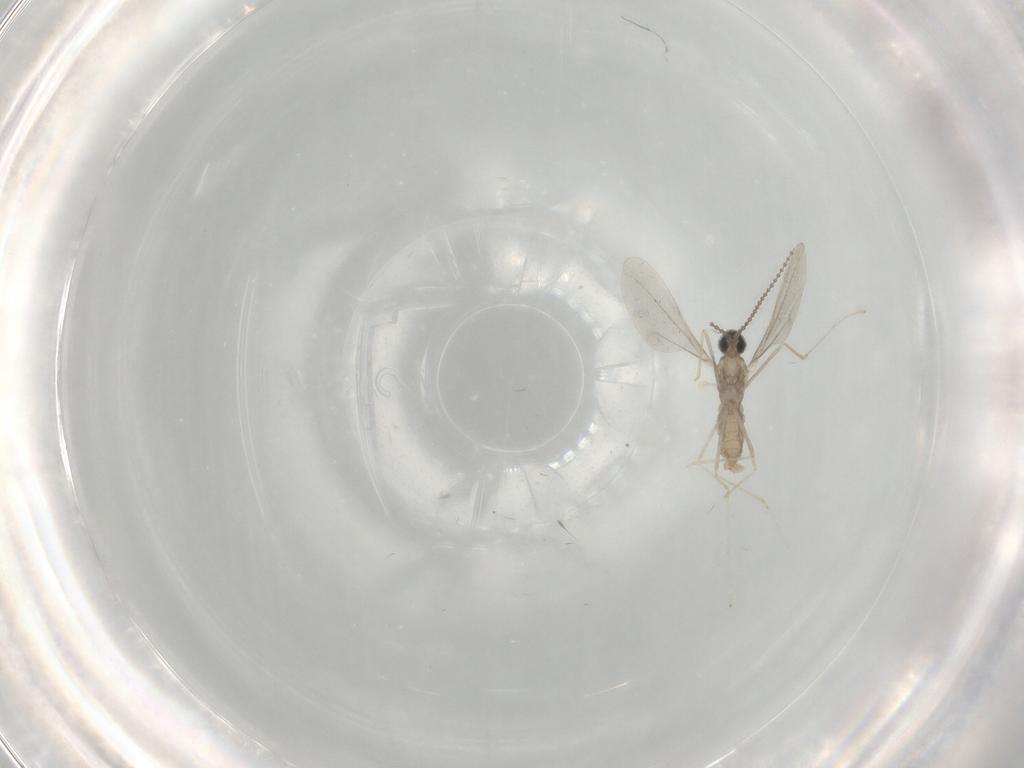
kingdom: Animalia
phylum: Arthropoda
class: Insecta
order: Diptera
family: Cecidomyiidae
